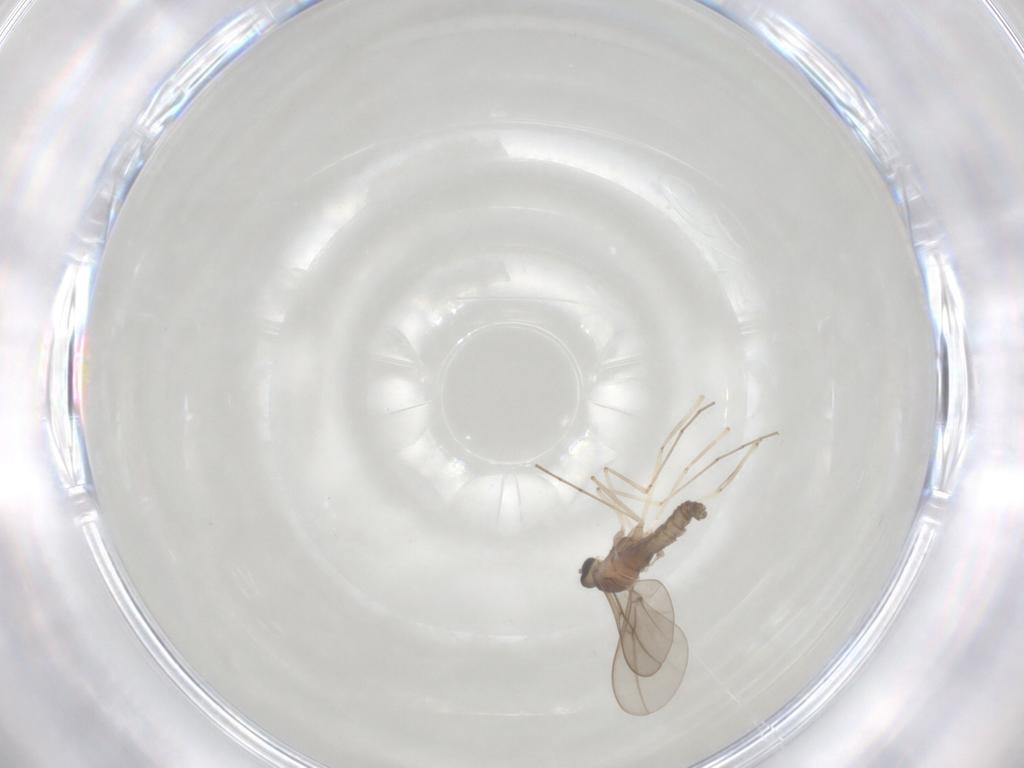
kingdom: Animalia
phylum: Arthropoda
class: Insecta
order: Diptera
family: Cecidomyiidae
